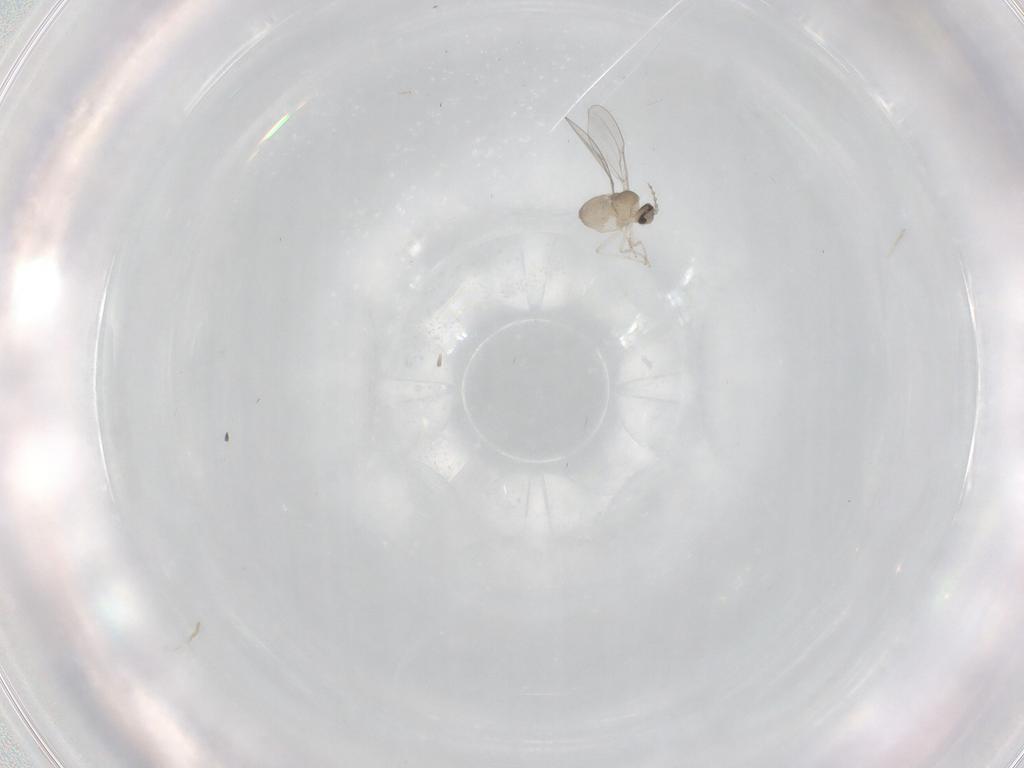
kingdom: Animalia
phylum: Arthropoda
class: Insecta
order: Diptera
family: Cecidomyiidae
